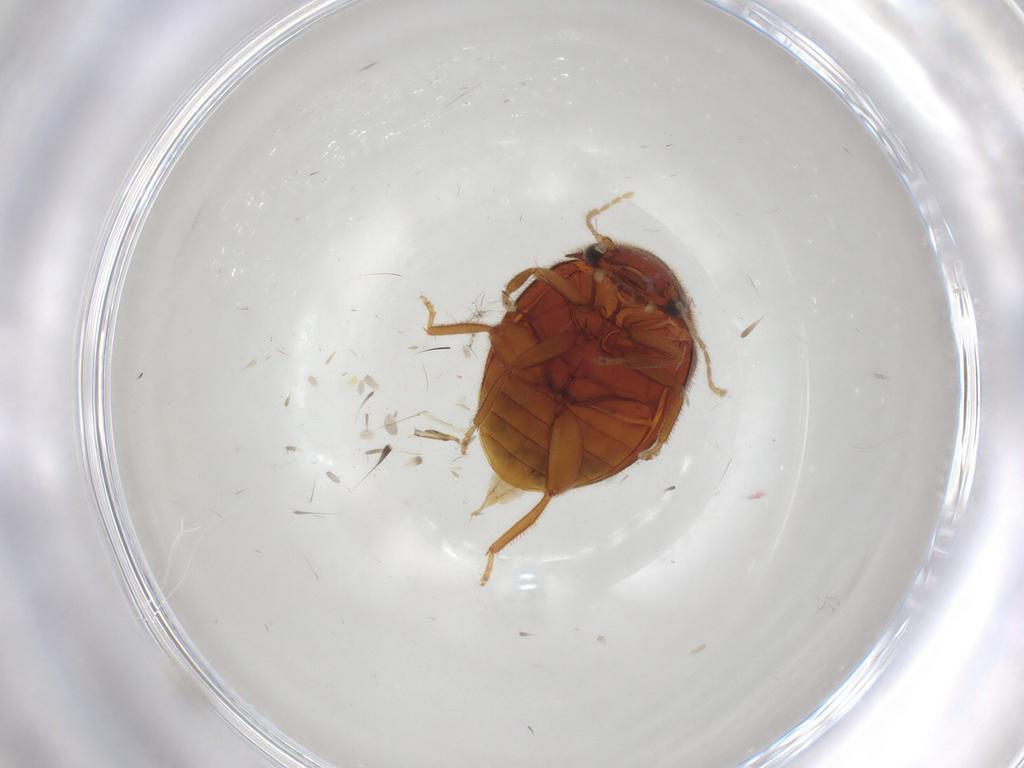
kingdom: Animalia
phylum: Arthropoda
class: Insecta
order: Coleoptera
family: Scirtidae
